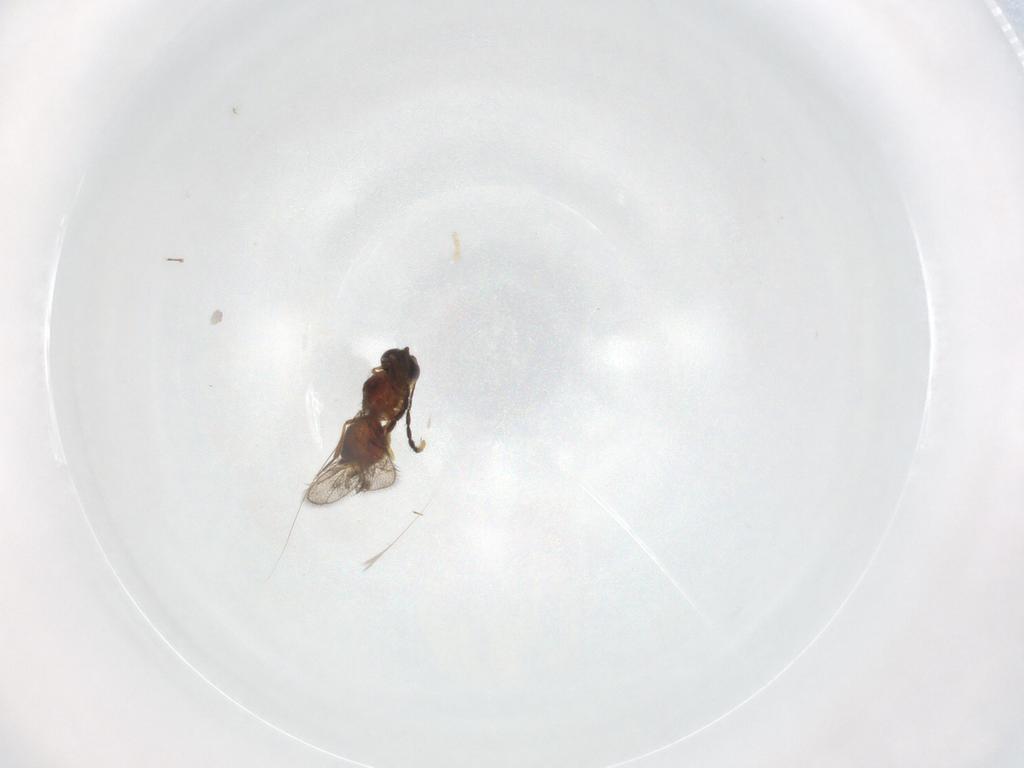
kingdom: Animalia
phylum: Arthropoda
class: Insecta
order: Hymenoptera
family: Figitidae
